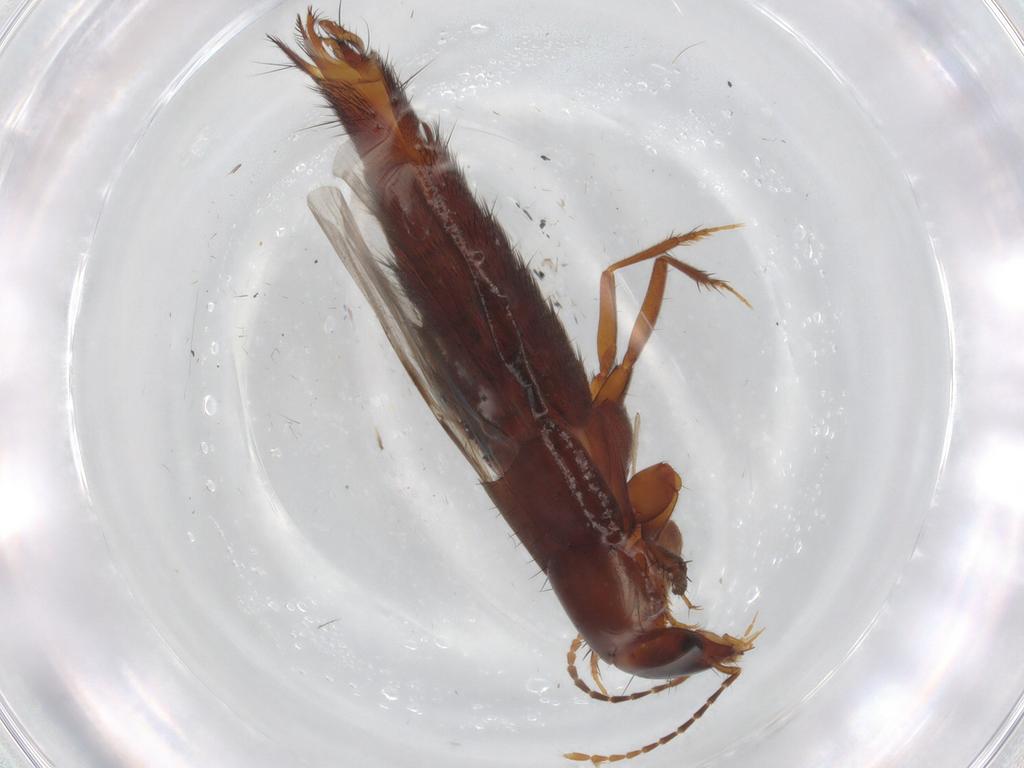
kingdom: Animalia
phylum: Arthropoda
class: Insecta
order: Coleoptera
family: Staphylinidae
